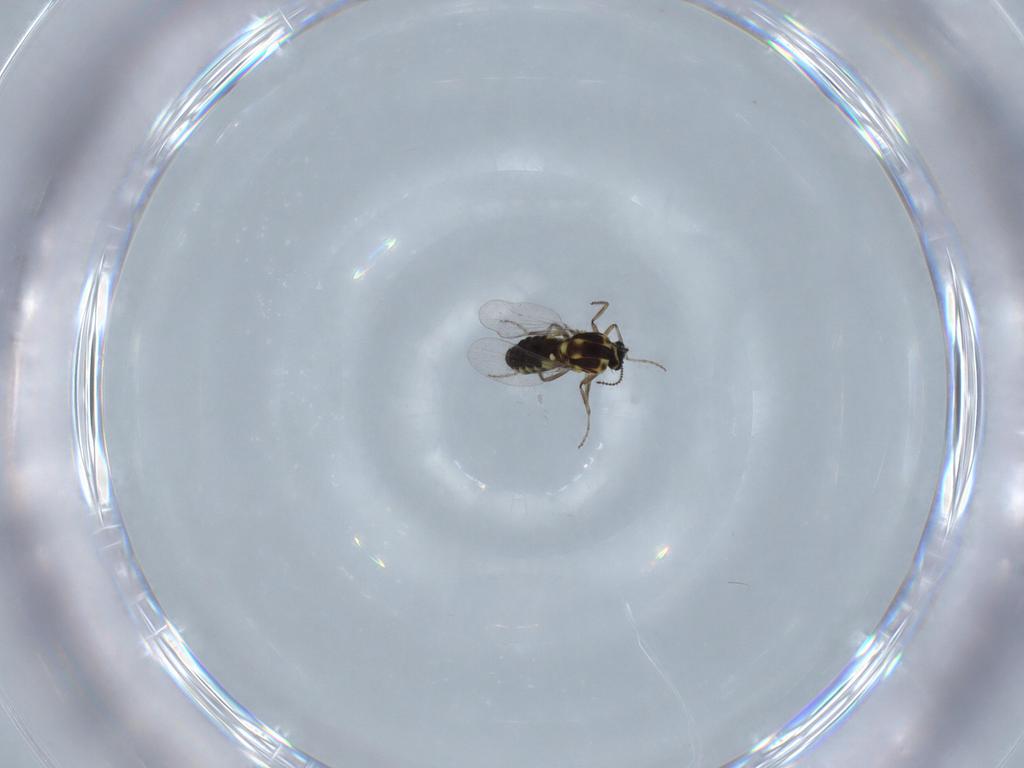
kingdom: Animalia
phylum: Arthropoda
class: Insecta
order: Diptera
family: Ceratopogonidae
